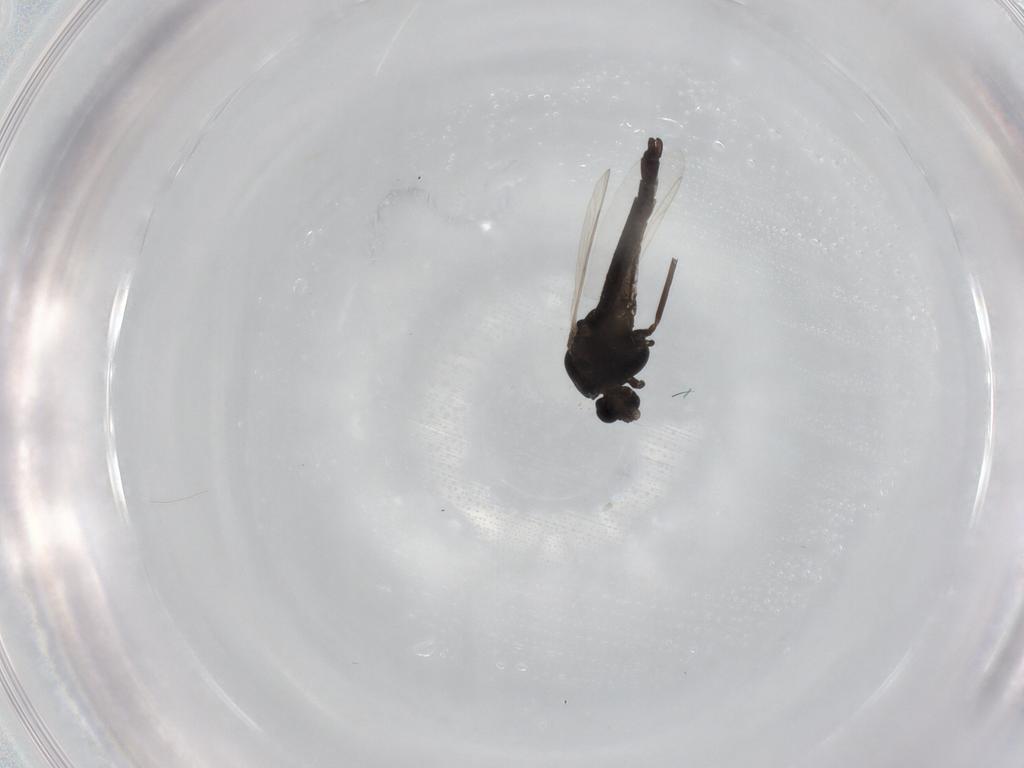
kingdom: Animalia
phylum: Arthropoda
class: Insecta
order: Diptera
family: Chironomidae
